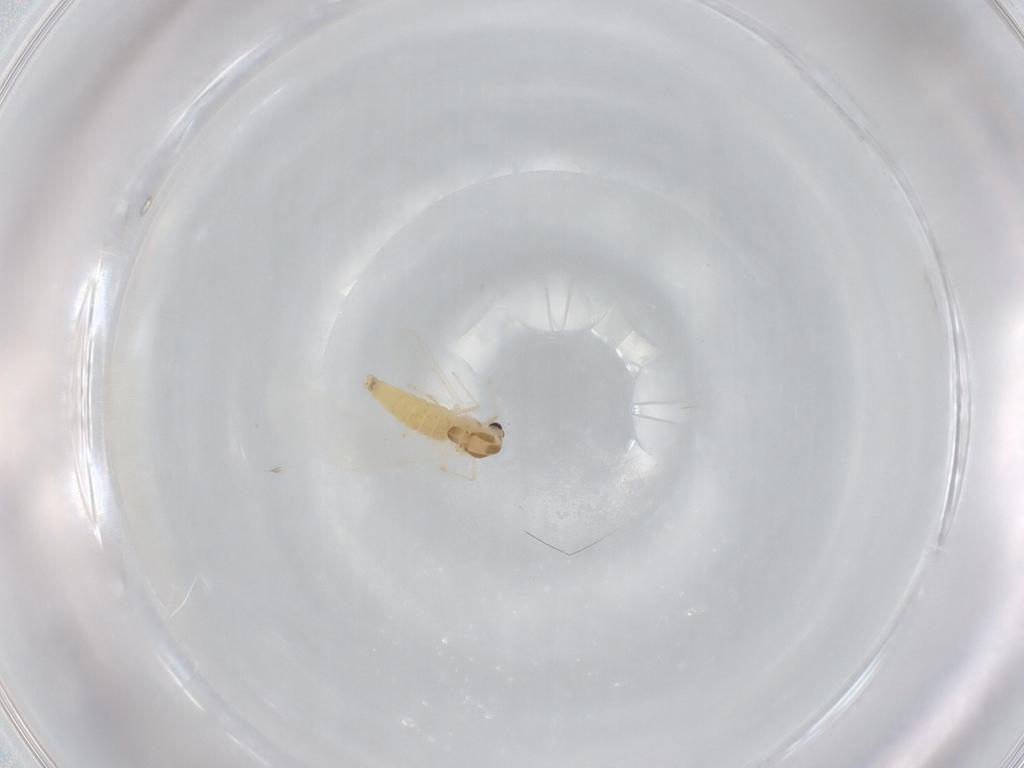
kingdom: Animalia
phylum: Arthropoda
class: Insecta
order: Diptera
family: Chironomidae
